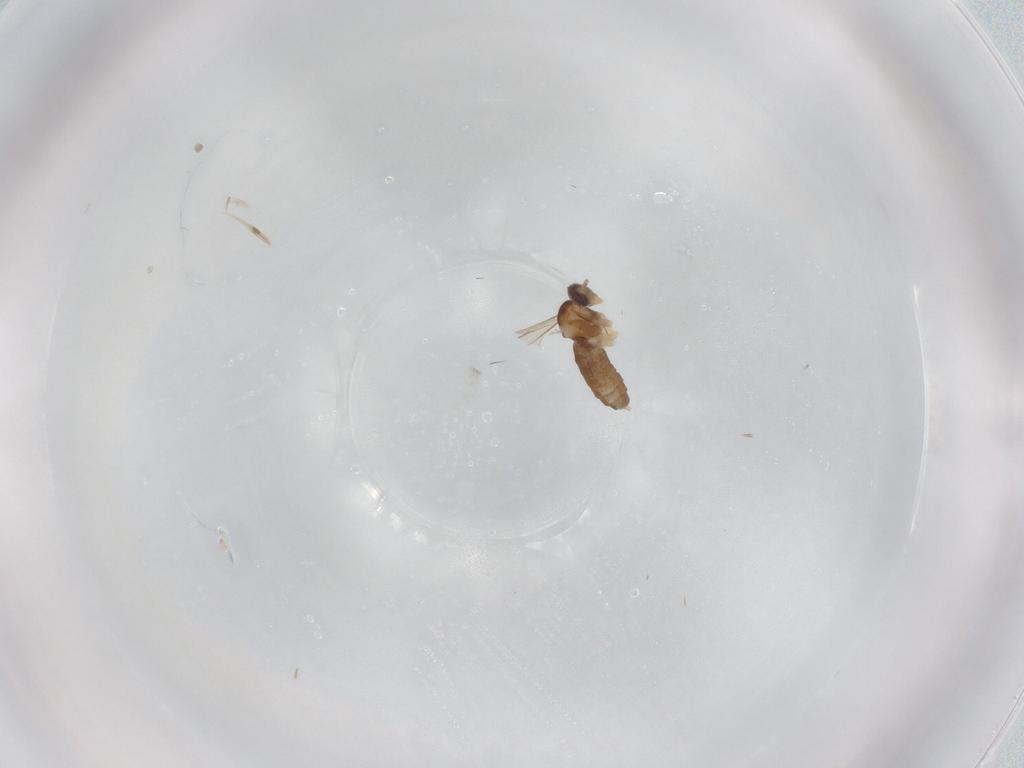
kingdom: Animalia
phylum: Arthropoda
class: Insecta
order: Diptera
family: Cecidomyiidae
